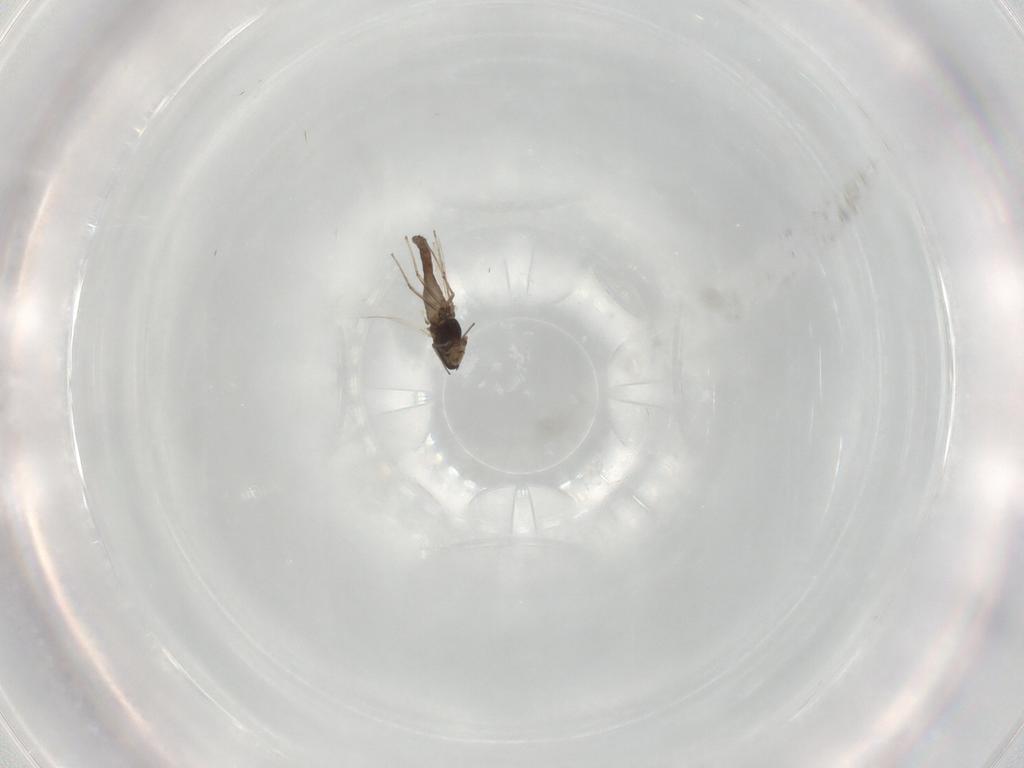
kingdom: Animalia
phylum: Arthropoda
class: Insecta
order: Diptera
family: Chironomidae
